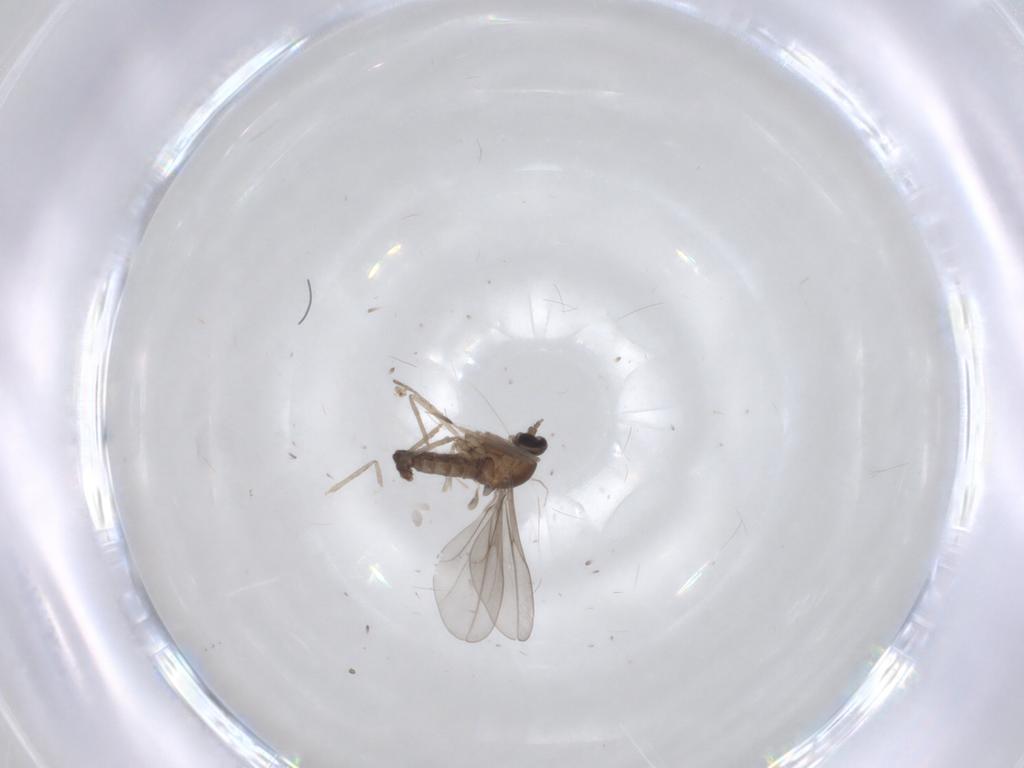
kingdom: Animalia
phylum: Arthropoda
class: Insecta
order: Diptera
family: Cecidomyiidae
